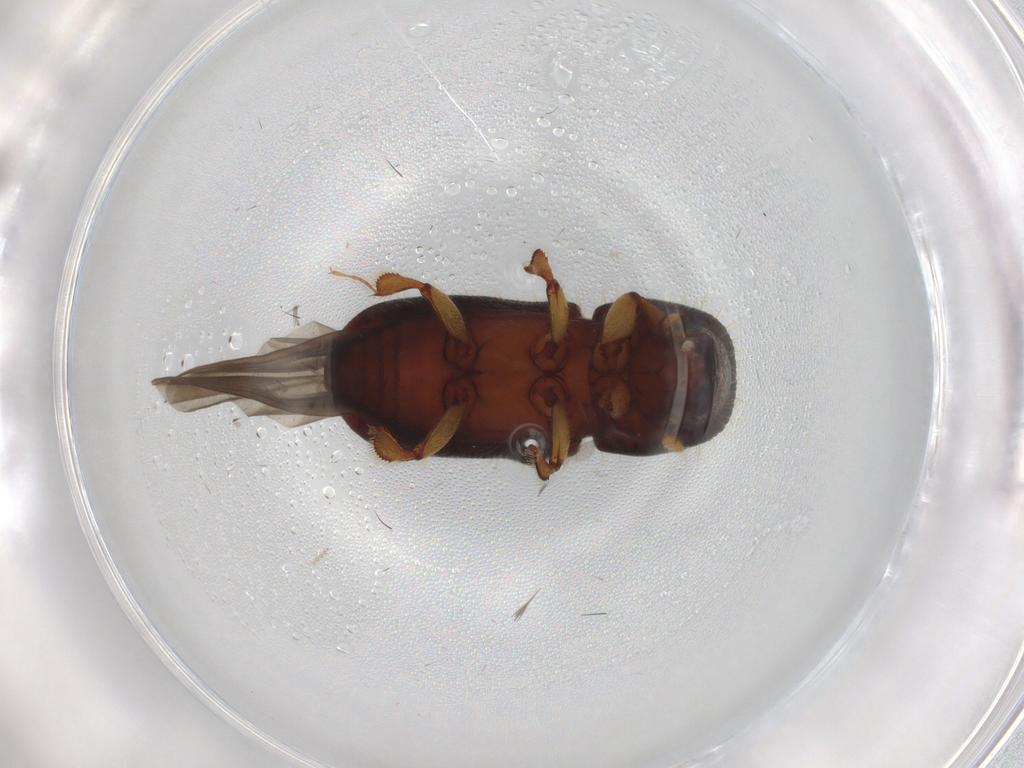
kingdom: Animalia
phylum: Arthropoda
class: Insecta
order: Coleoptera
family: Curculionidae
